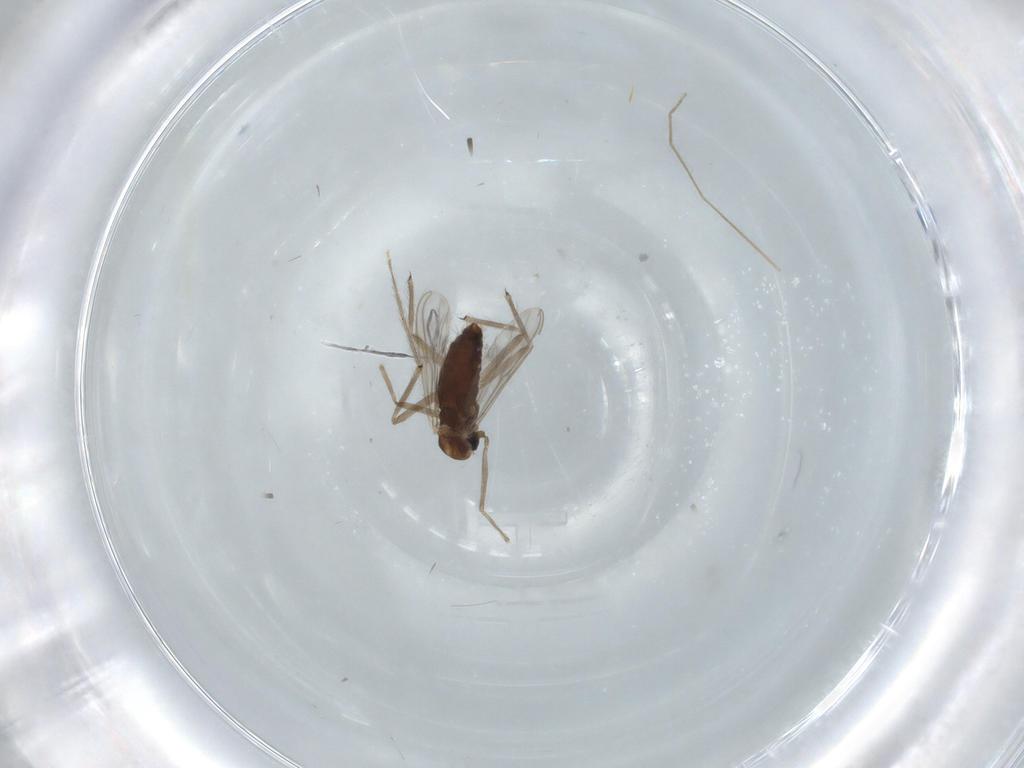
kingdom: Animalia
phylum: Arthropoda
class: Insecta
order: Diptera
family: Chironomidae
